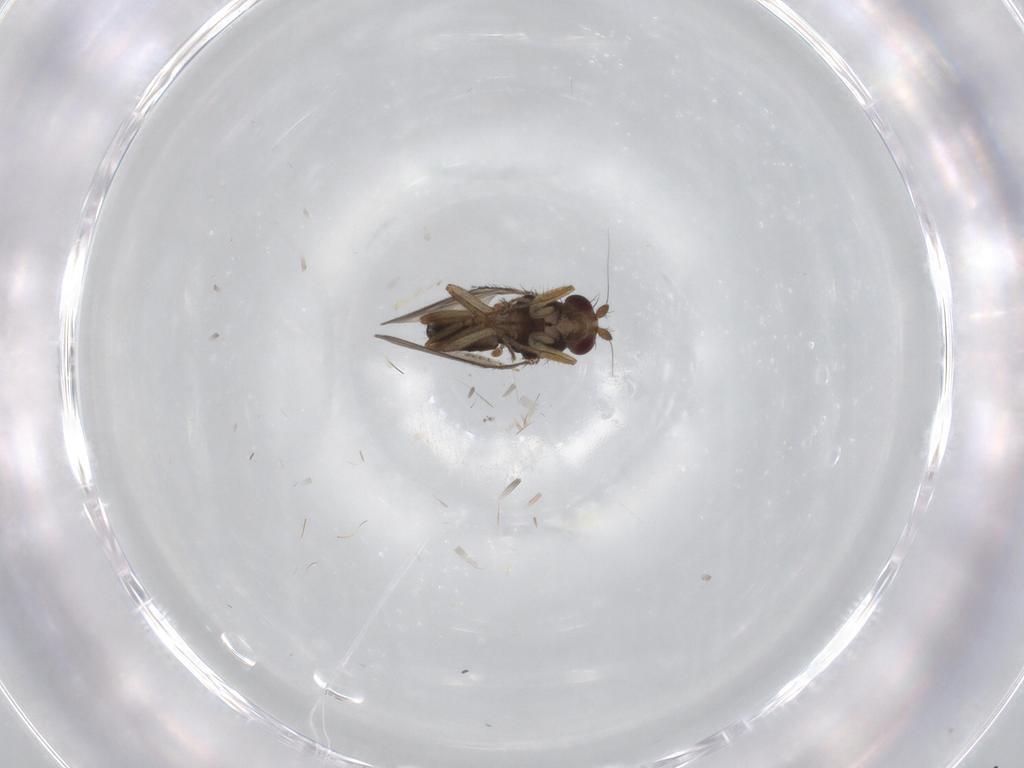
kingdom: Animalia
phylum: Arthropoda
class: Insecta
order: Diptera
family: Sphaeroceridae
